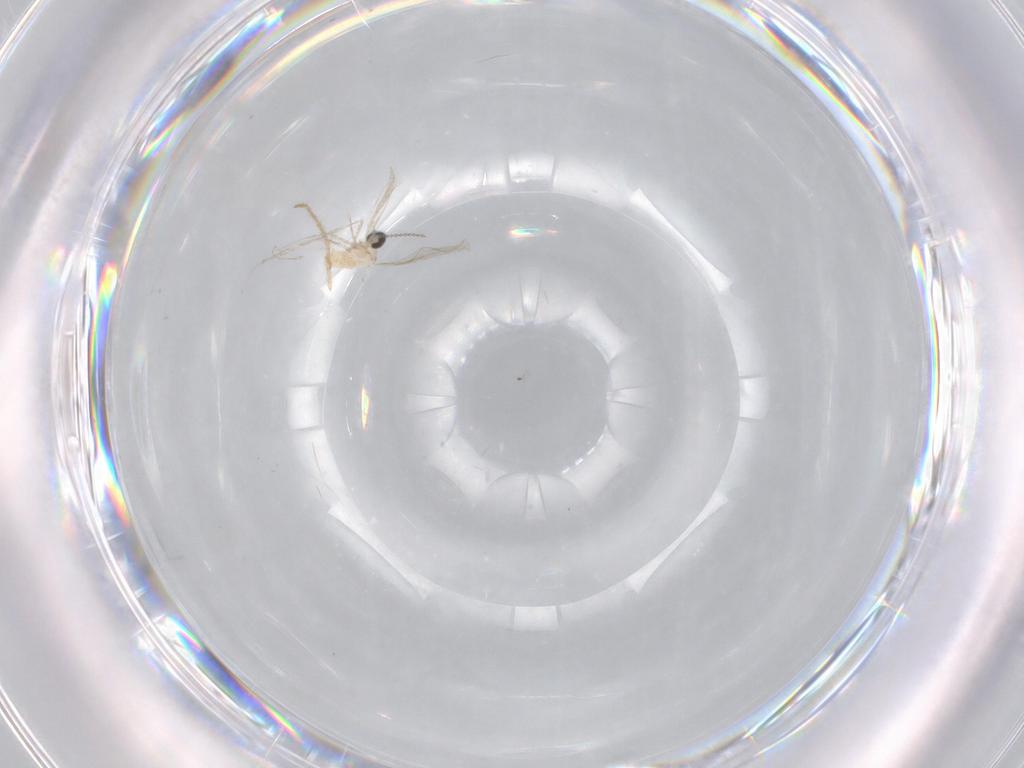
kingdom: Animalia
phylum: Arthropoda
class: Insecta
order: Diptera
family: Cecidomyiidae
